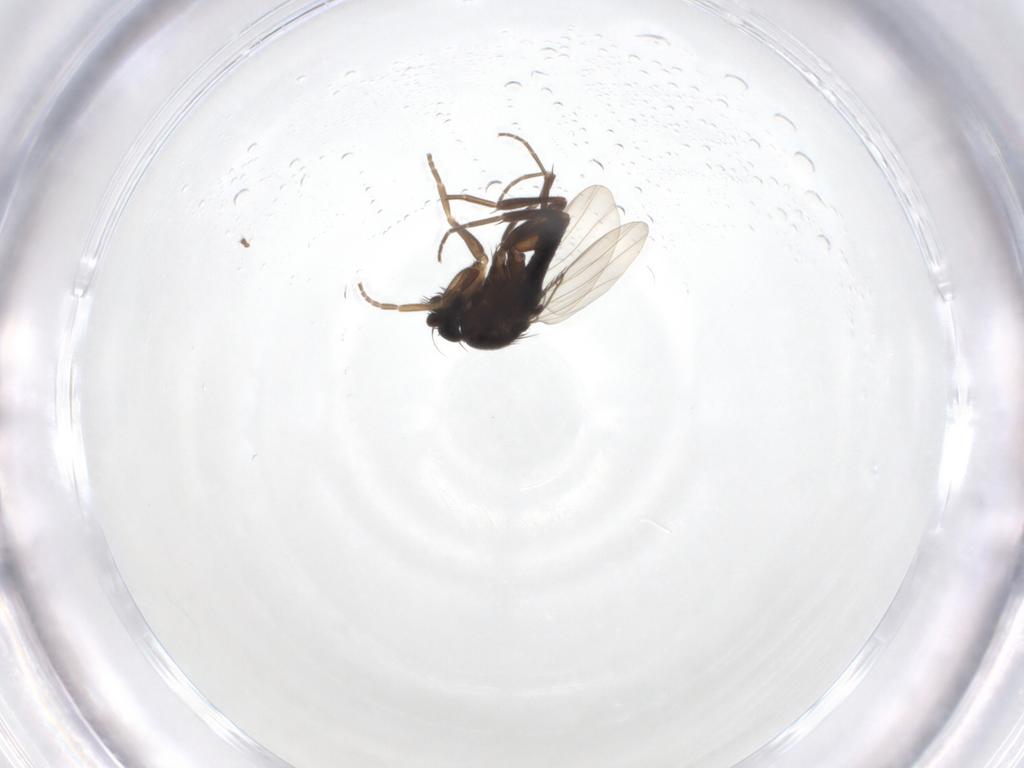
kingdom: Animalia
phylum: Arthropoda
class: Insecta
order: Diptera
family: Phoridae
